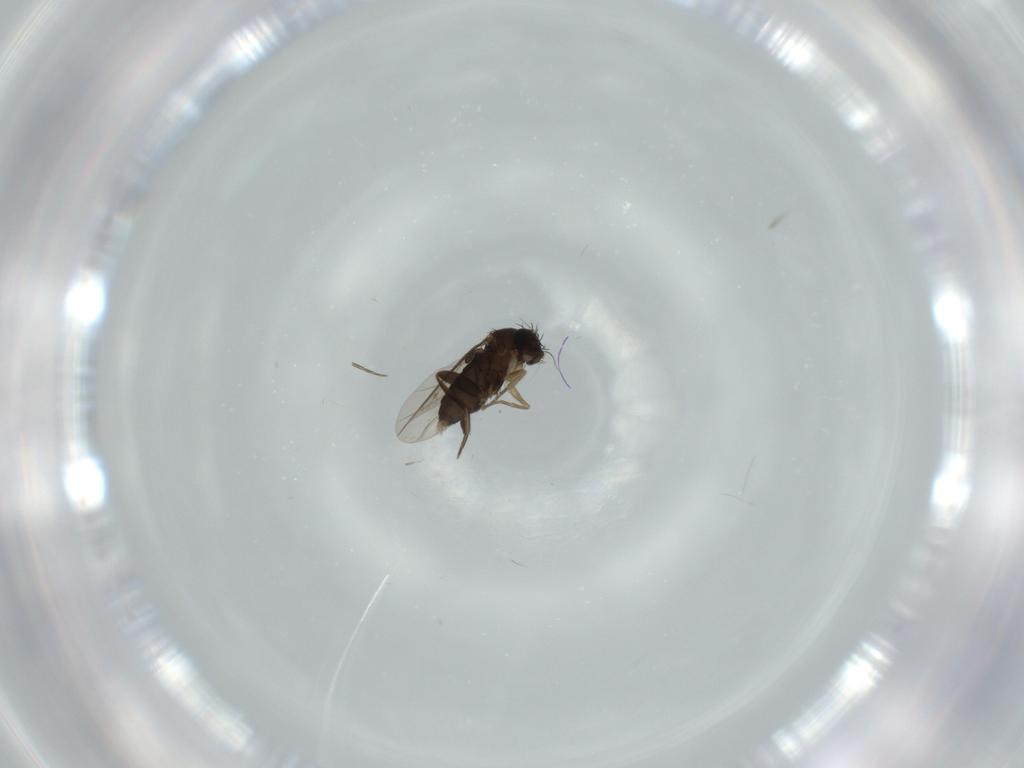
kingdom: Animalia
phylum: Arthropoda
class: Insecta
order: Diptera
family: Phoridae
